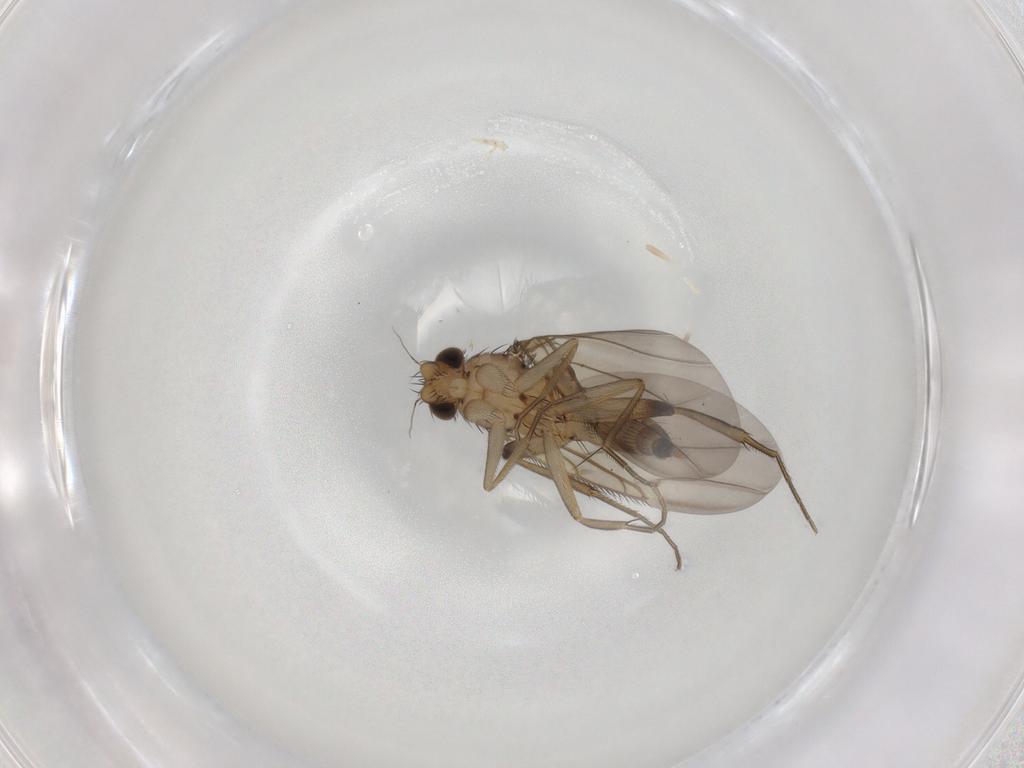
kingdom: Animalia
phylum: Arthropoda
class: Insecta
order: Diptera
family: Phoridae
